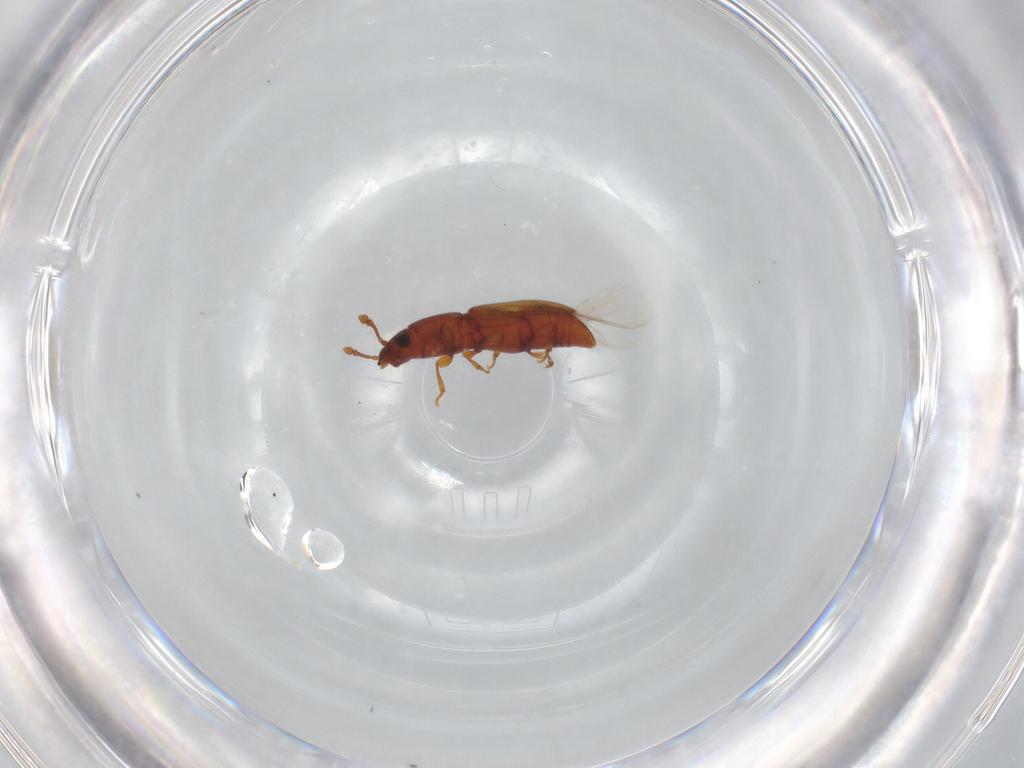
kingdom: Animalia
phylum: Arthropoda
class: Insecta
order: Coleoptera
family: Monotomidae
